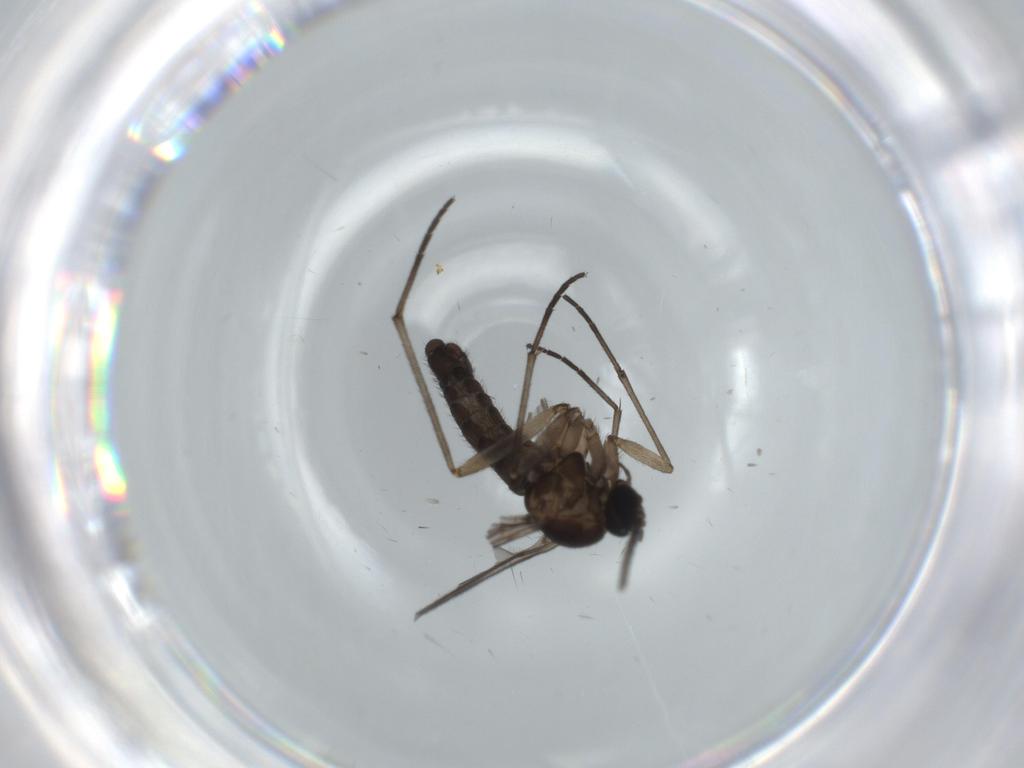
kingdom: Animalia
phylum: Arthropoda
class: Insecta
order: Diptera
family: Sciaridae
